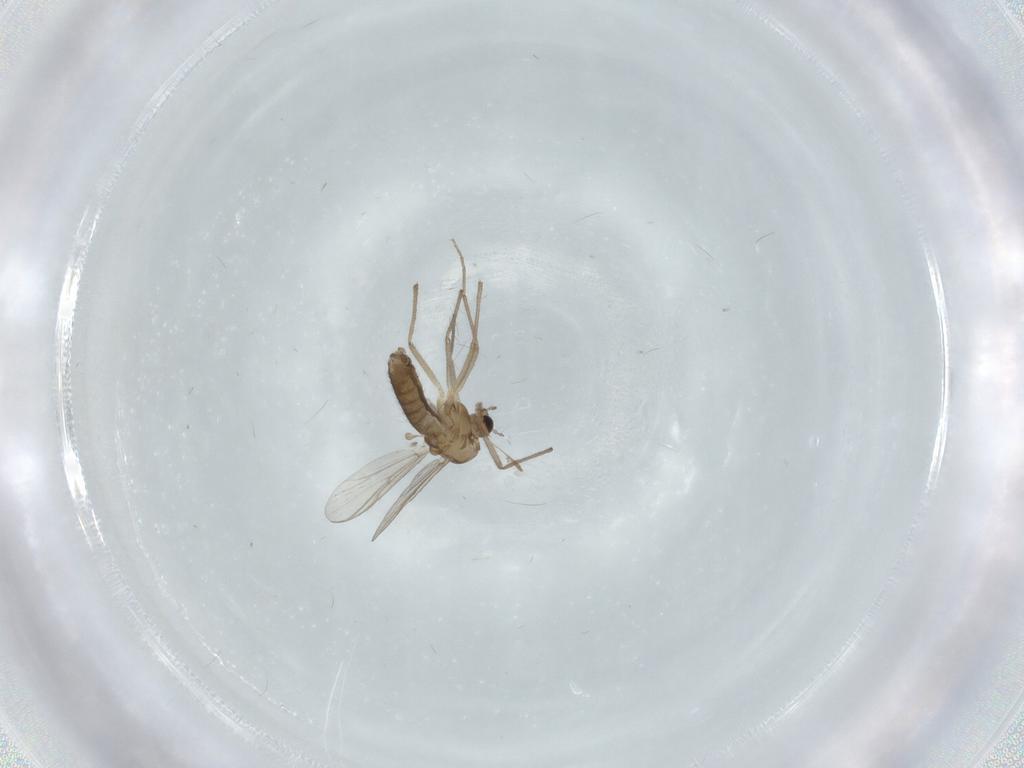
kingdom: Animalia
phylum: Arthropoda
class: Insecta
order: Diptera
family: Chironomidae
